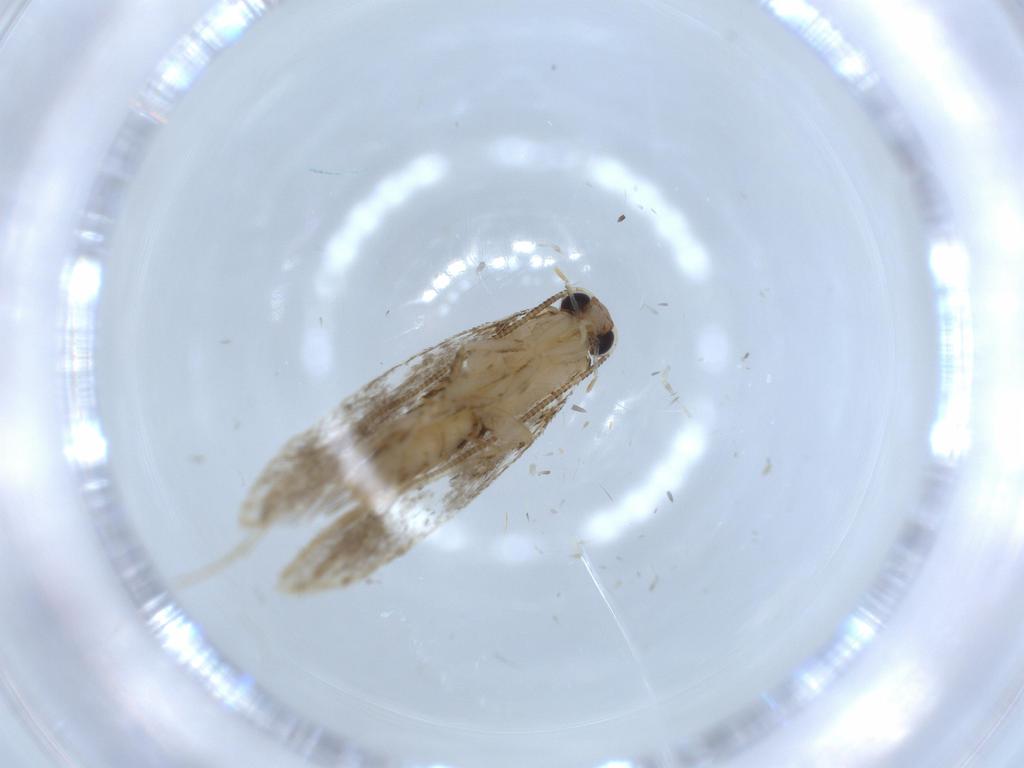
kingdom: Animalia
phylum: Arthropoda
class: Insecta
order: Lepidoptera
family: Tineidae
